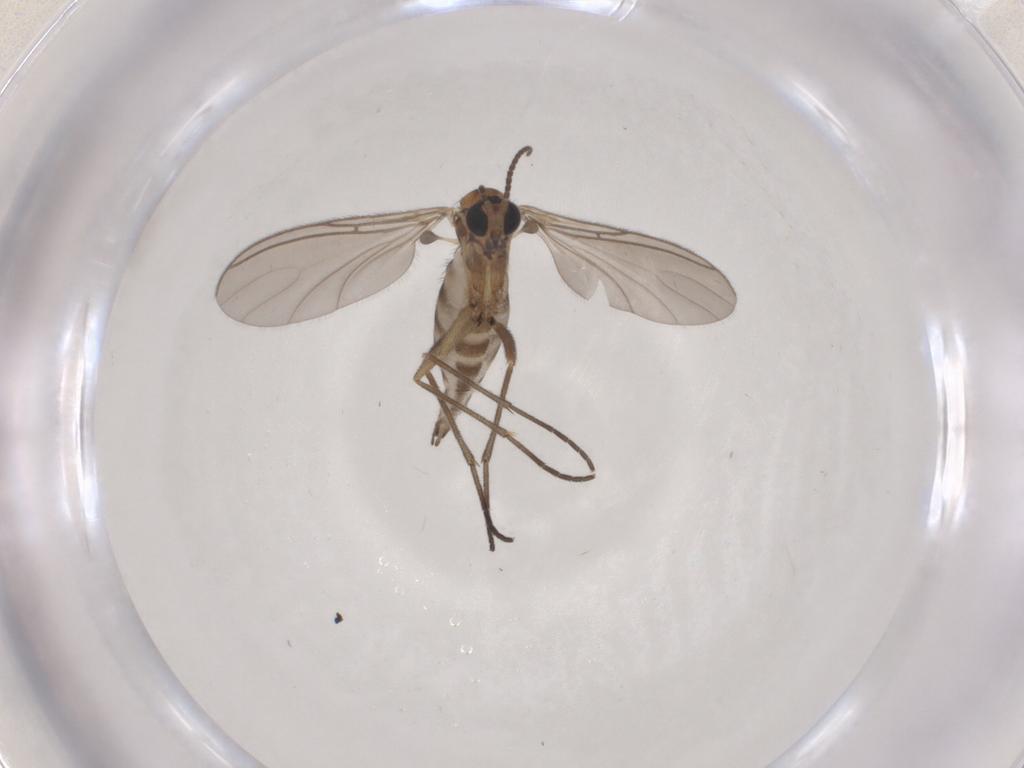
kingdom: Animalia
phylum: Arthropoda
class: Insecta
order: Diptera
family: Sciaridae
